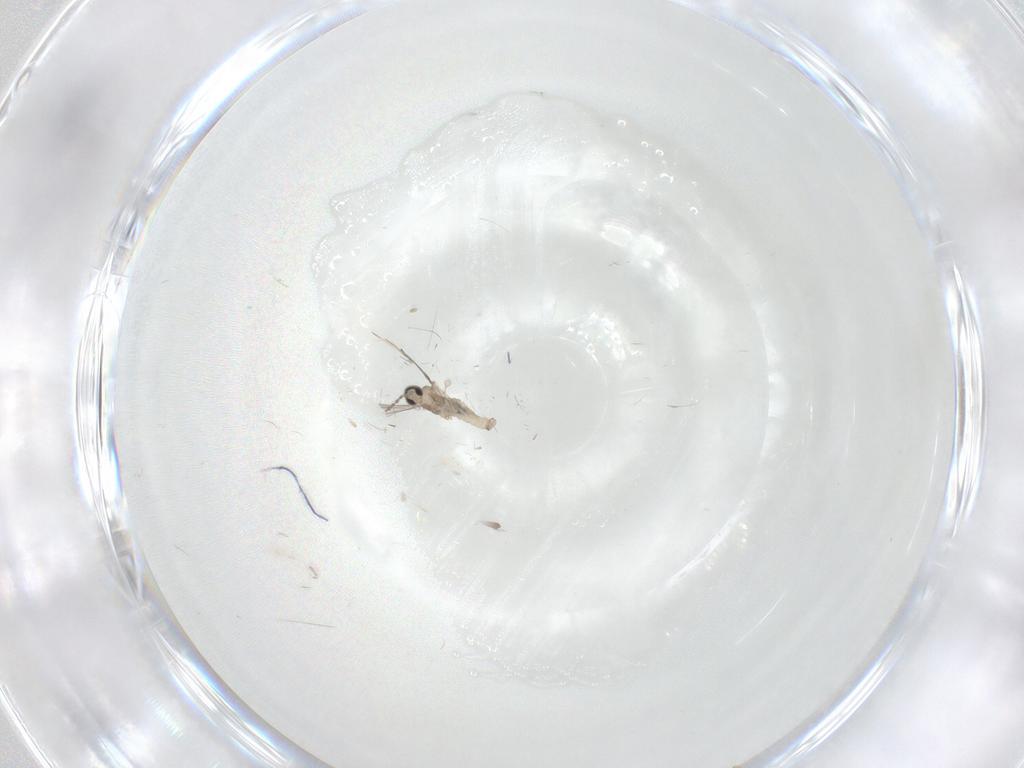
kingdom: Animalia
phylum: Arthropoda
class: Insecta
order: Diptera
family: Cecidomyiidae
